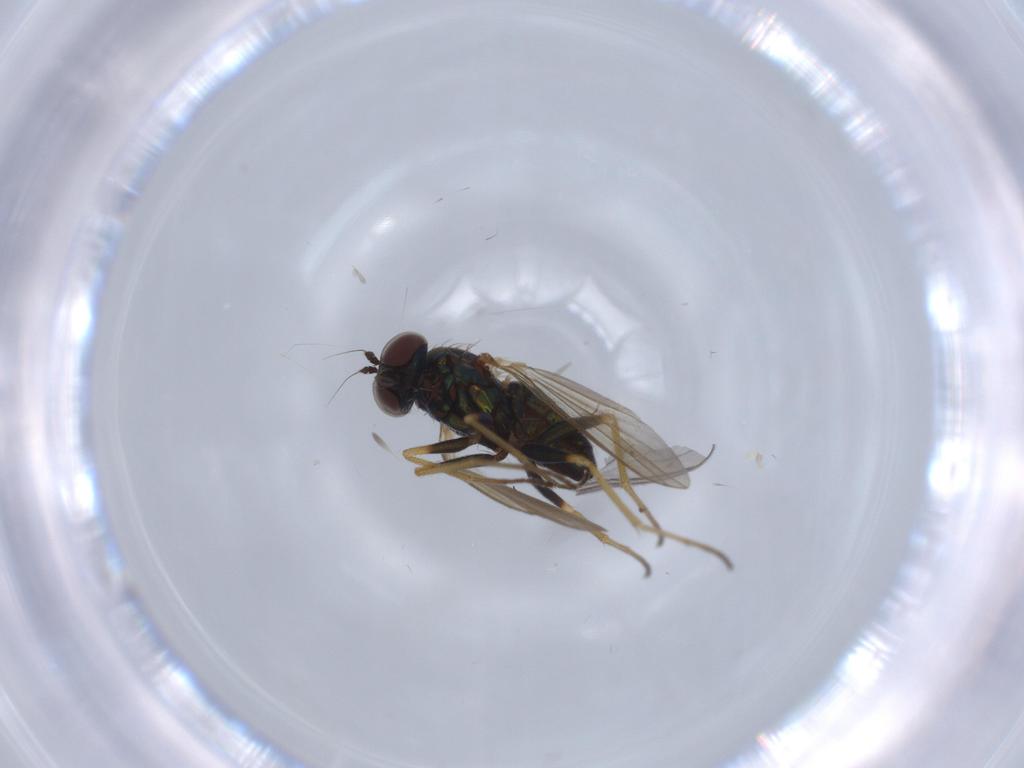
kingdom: Animalia
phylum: Arthropoda
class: Insecta
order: Diptera
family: Dolichopodidae
